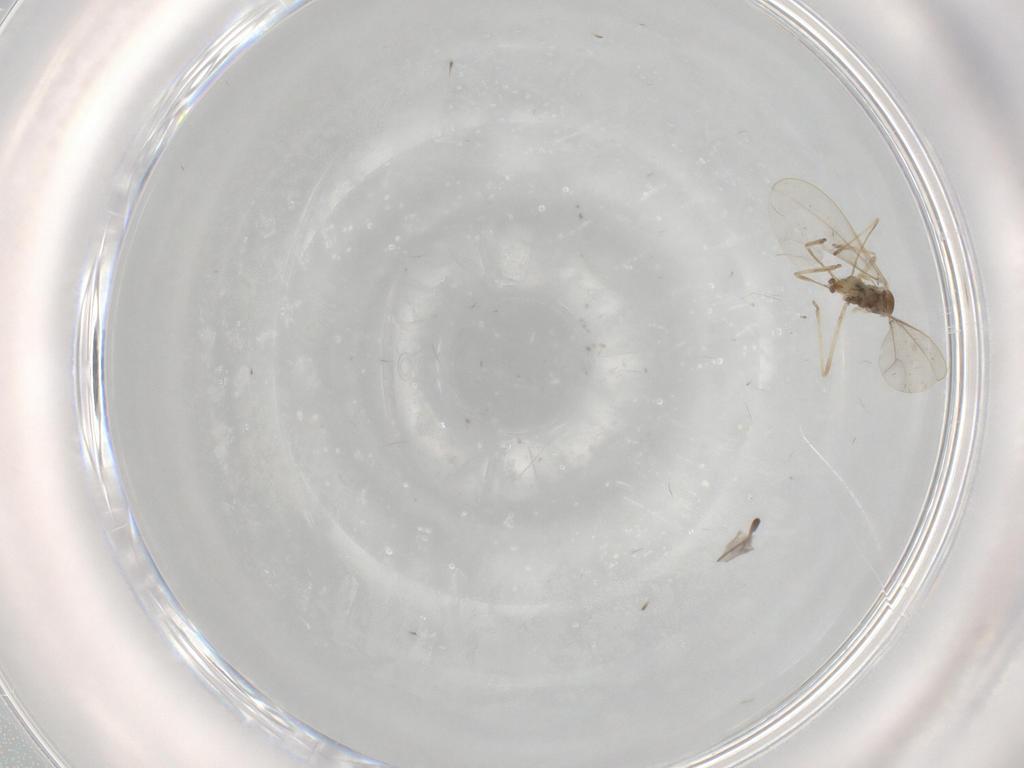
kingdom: Animalia
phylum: Arthropoda
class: Insecta
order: Diptera
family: Cecidomyiidae
